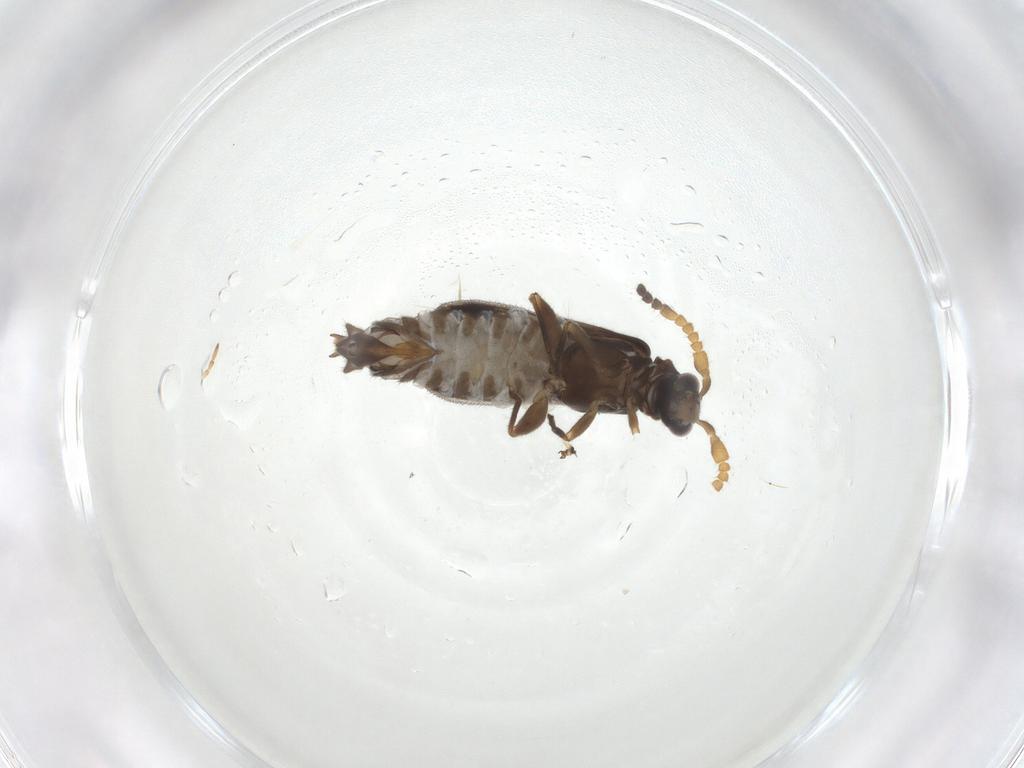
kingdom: Animalia
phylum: Arthropoda
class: Insecta
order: Coleoptera
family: Cantharidae
